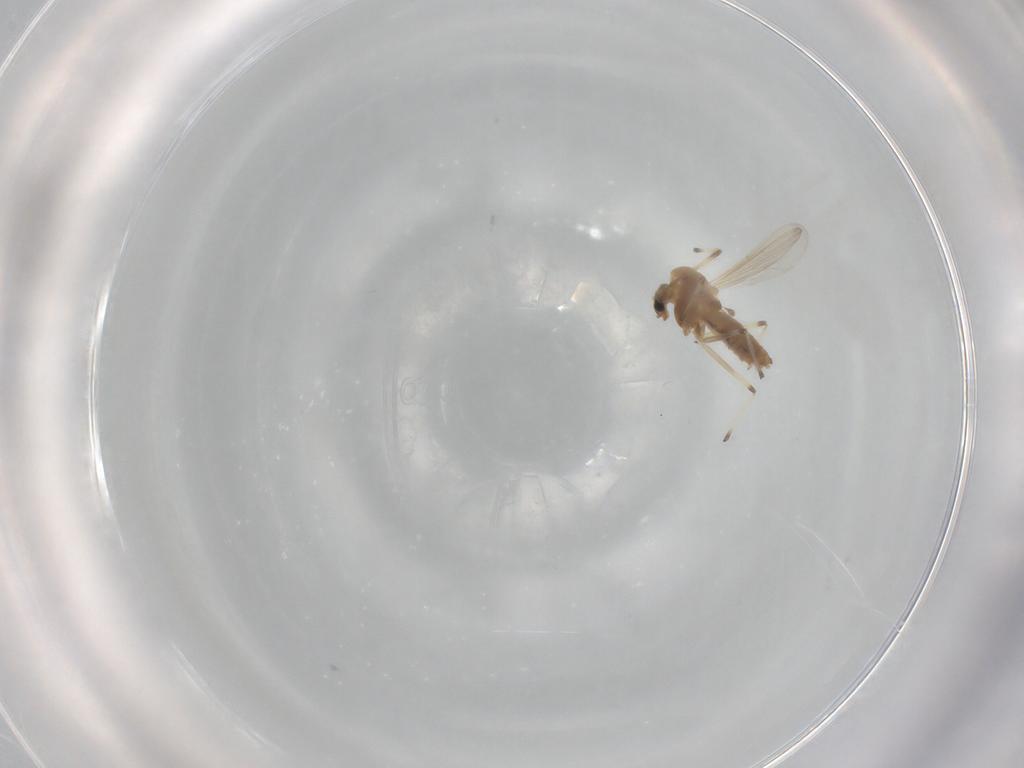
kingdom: Animalia
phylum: Arthropoda
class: Insecta
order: Diptera
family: Chironomidae
